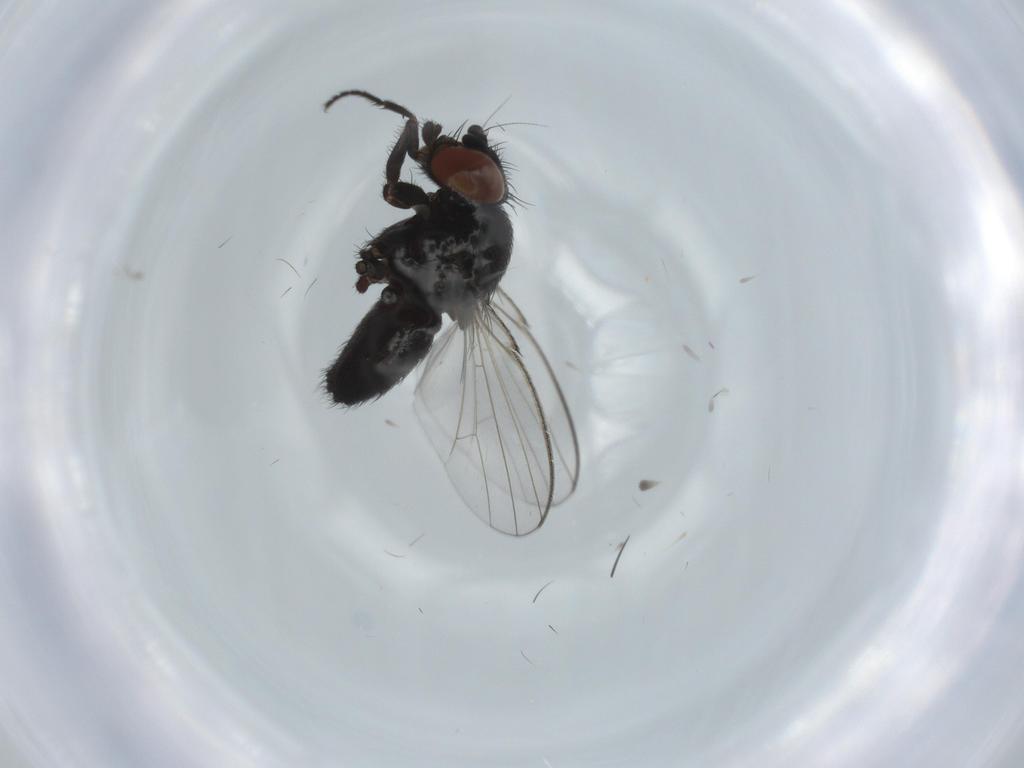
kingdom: Animalia
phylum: Arthropoda
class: Insecta
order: Diptera
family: Milichiidae
